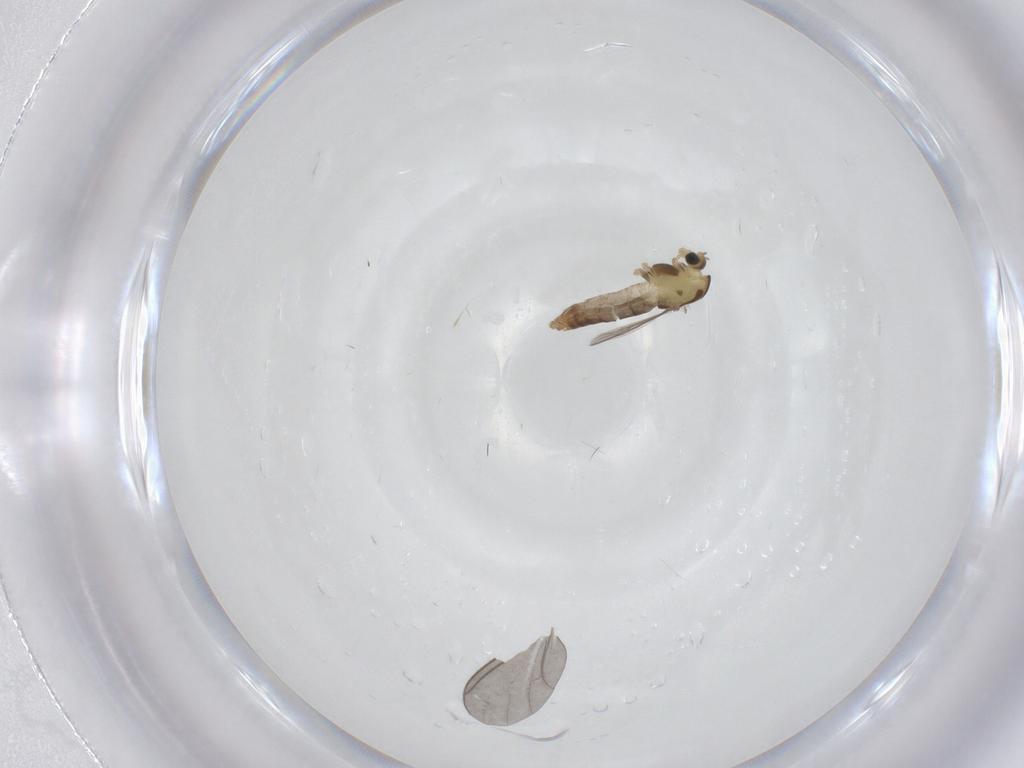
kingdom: Animalia
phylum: Arthropoda
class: Insecta
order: Diptera
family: Chironomidae
